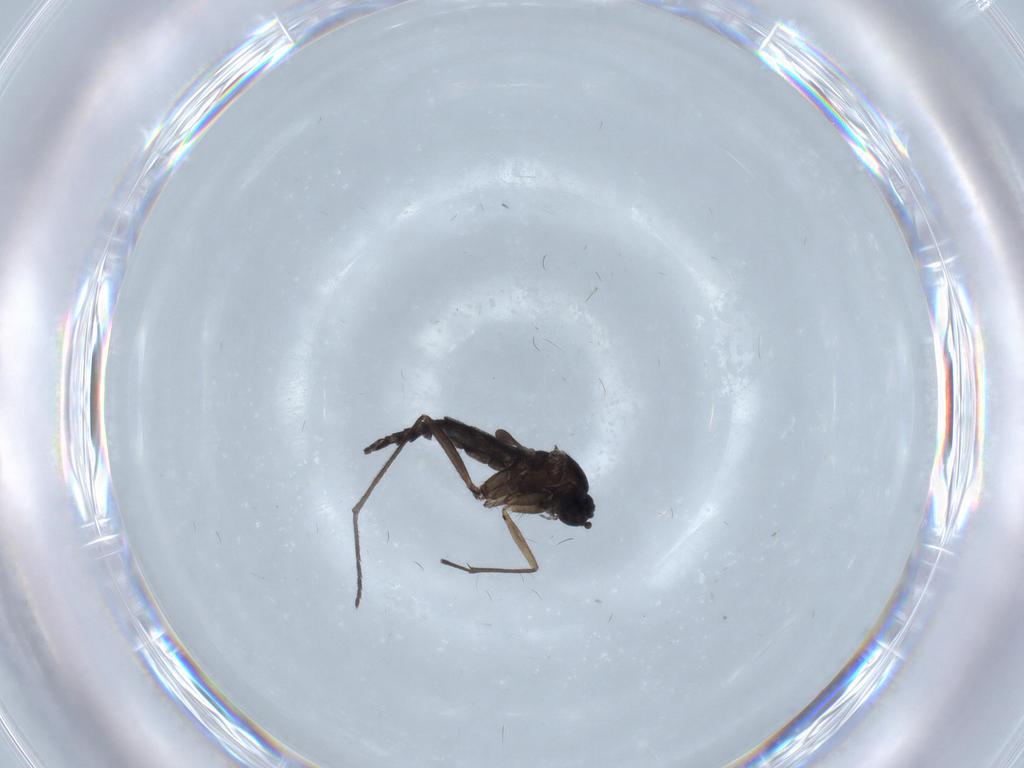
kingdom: Animalia
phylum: Arthropoda
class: Insecta
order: Diptera
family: Sciaridae
